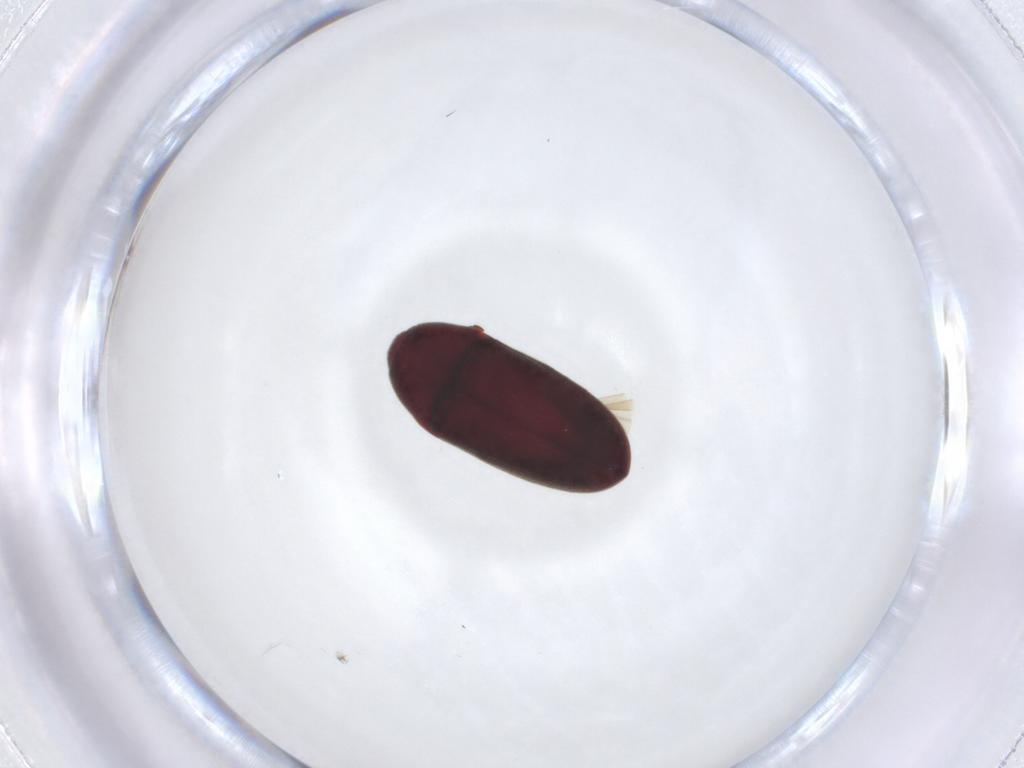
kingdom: Animalia
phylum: Arthropoda
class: Insecta
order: Coleoptera
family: Throscidae
